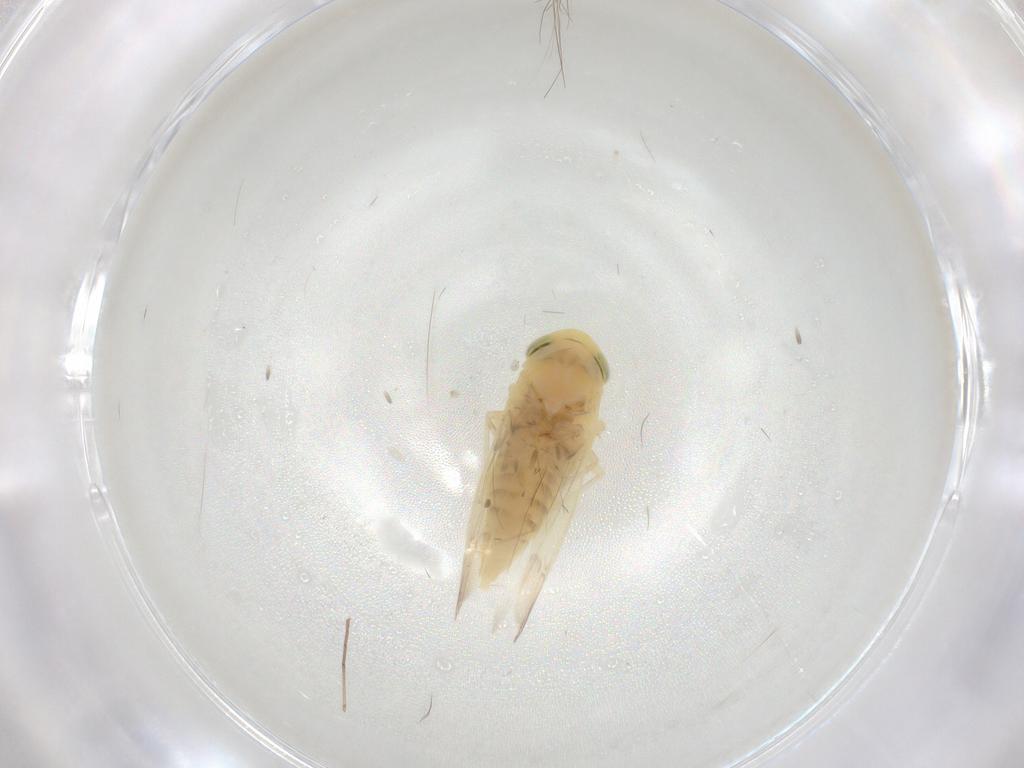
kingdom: Animalia
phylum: Arthropoda
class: Insecta
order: Hemiptera
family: Cicadellidae
